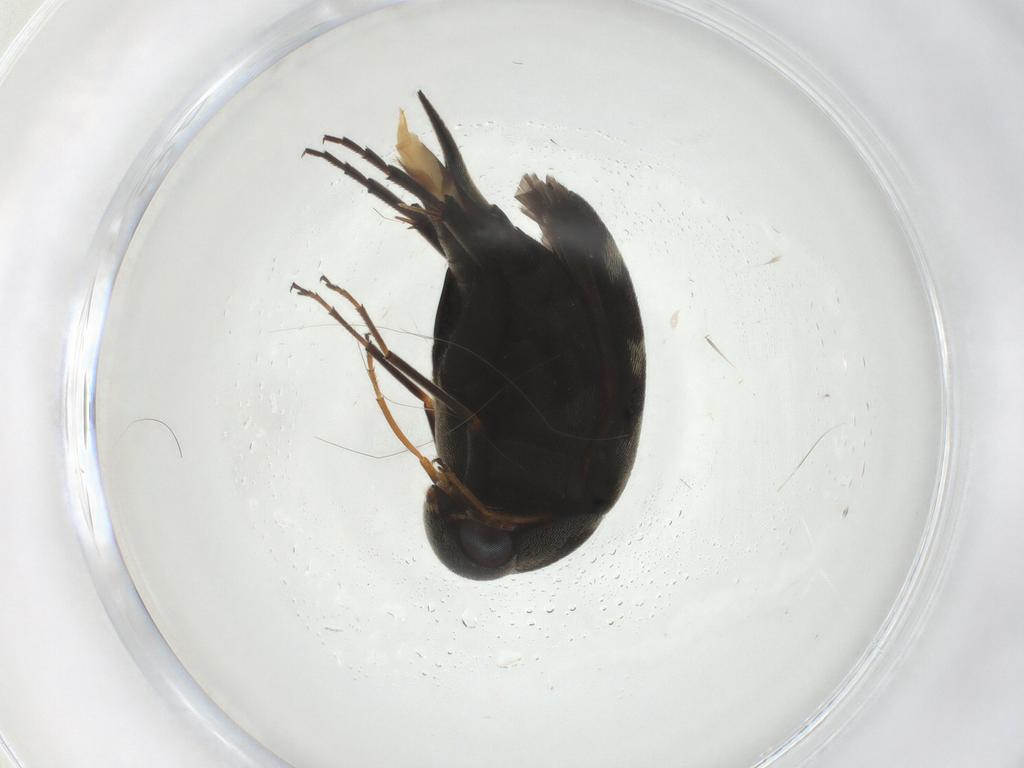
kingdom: Animalia
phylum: Arthropoda
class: Insecta
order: Coleoptera
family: Mordellidae
